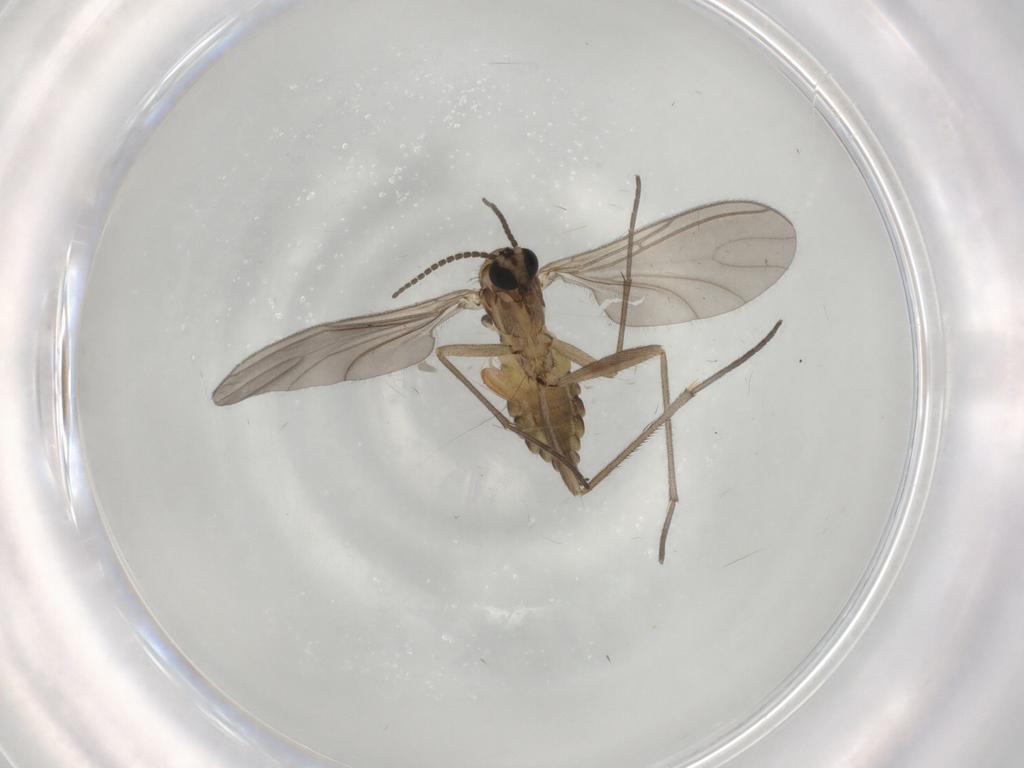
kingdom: Animalia
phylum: Arthropoda
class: Insecta
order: Diptera
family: Sciaridae
